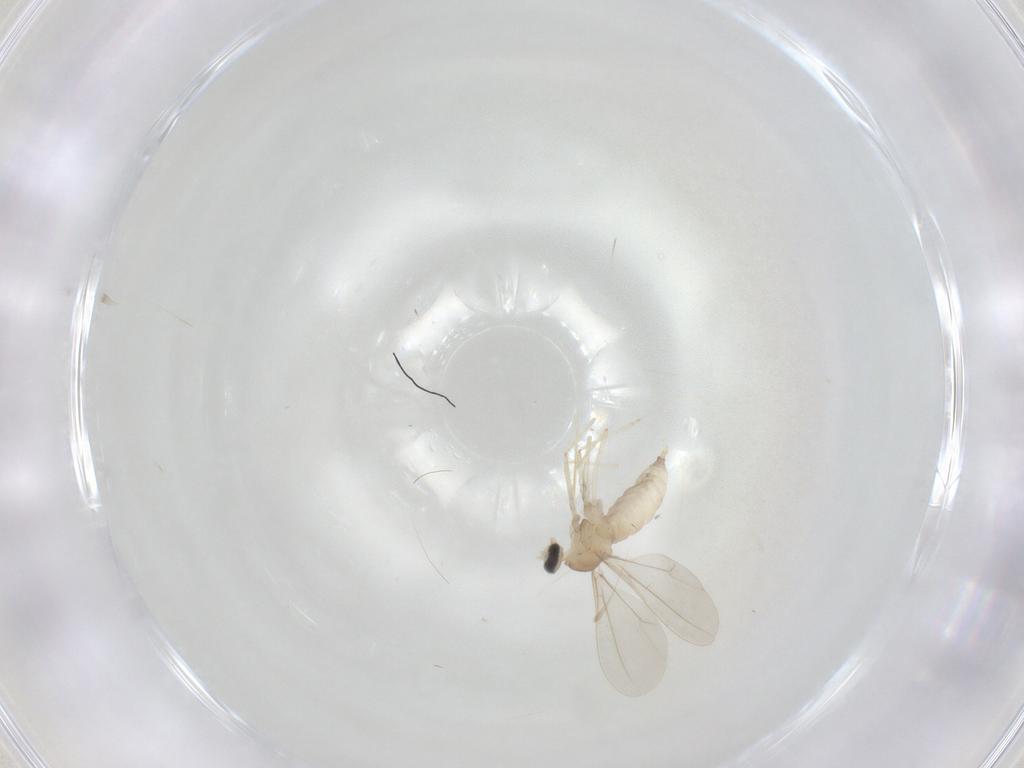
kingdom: Animalia
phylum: Arthropoda
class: Insecta
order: Diptera
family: Cecidomyiidae
